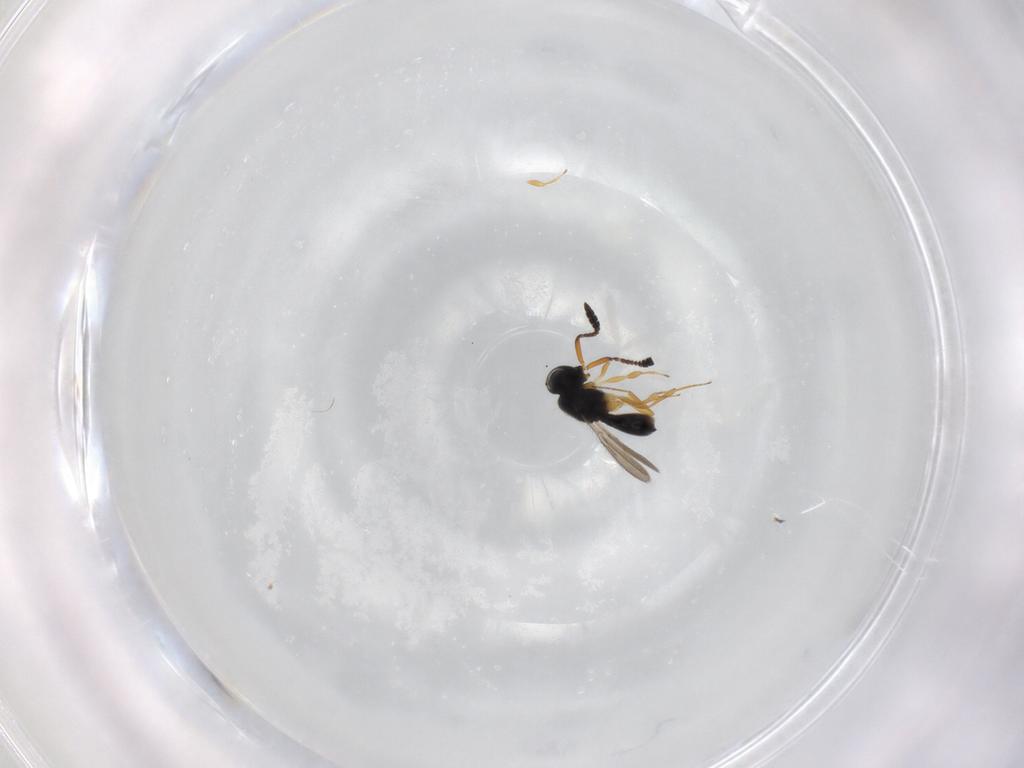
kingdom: Animalia
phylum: Arthropoda
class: Insecta
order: Hymenoptera
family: Scelionidae
